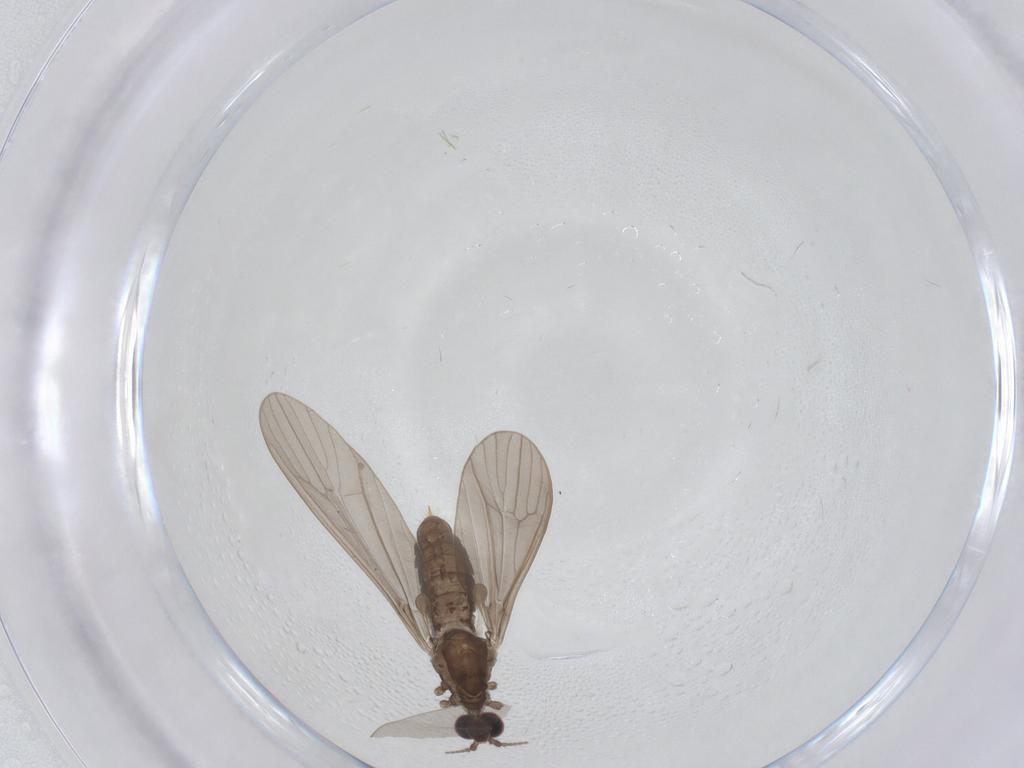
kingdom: Animalia
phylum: Arthropoda
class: Insecta
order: Diptera
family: Limoniidae
